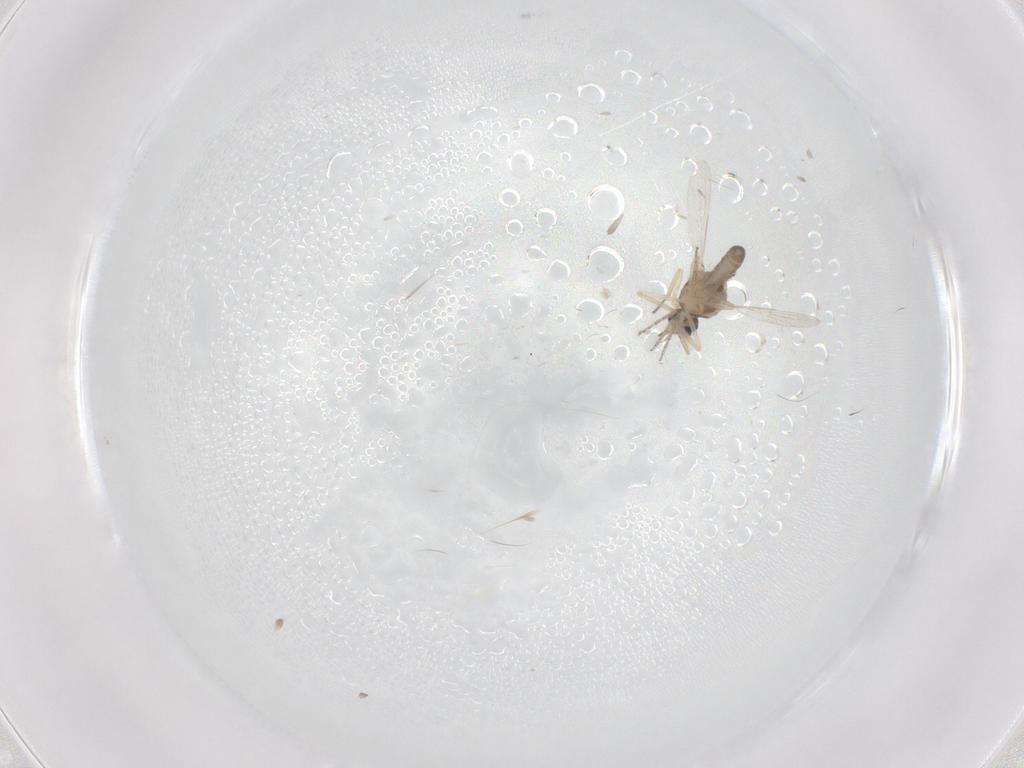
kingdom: Animalia
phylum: Arthropoda
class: Insecta
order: Diptera
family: Ceratopogonidae
